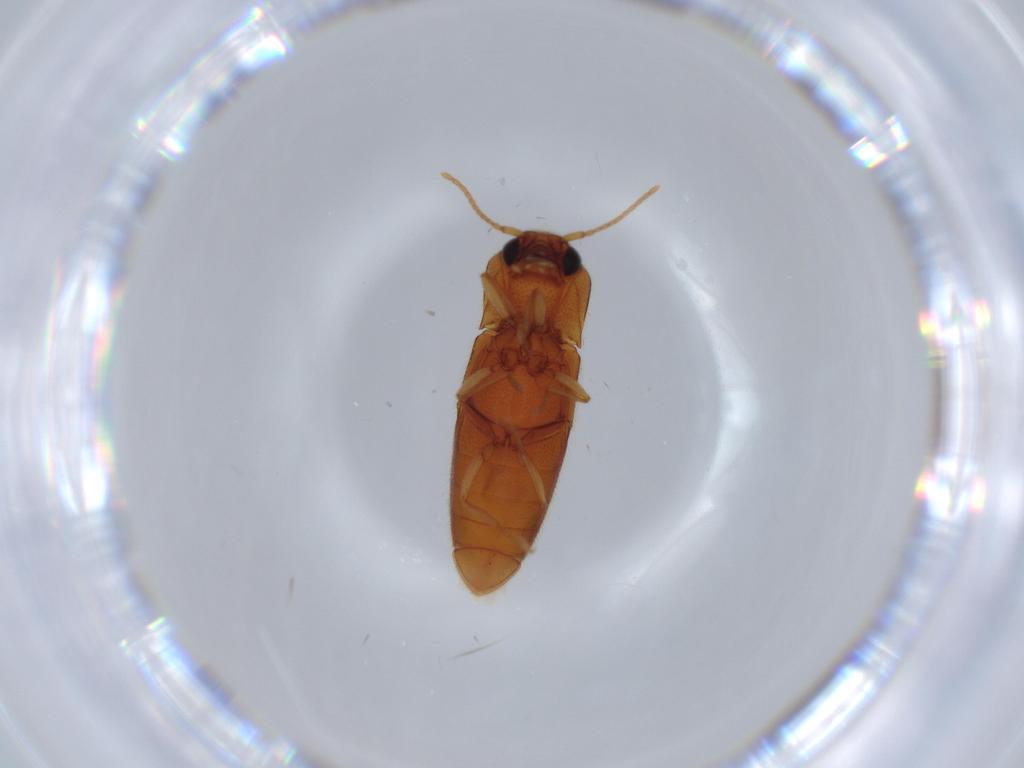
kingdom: Animalia
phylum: Arthropoda
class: Insecta
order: Coleoptera
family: Elateridae
